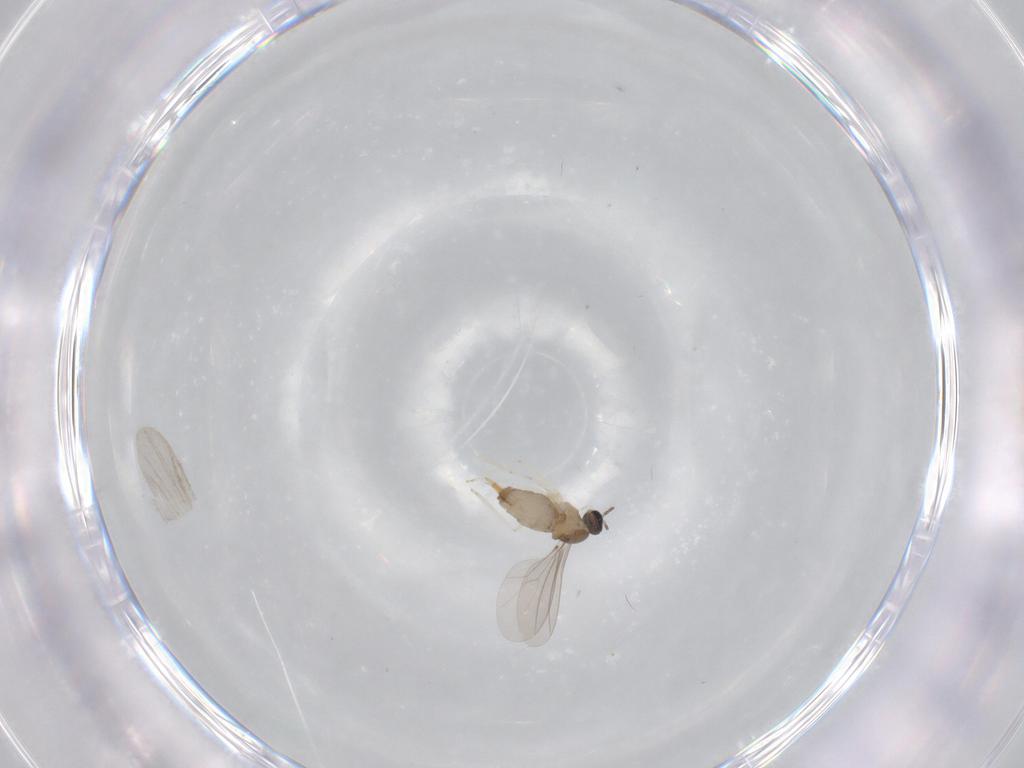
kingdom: Animalia
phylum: Arthropoda
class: Insecta
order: Diptera
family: Cecidomyiidae
